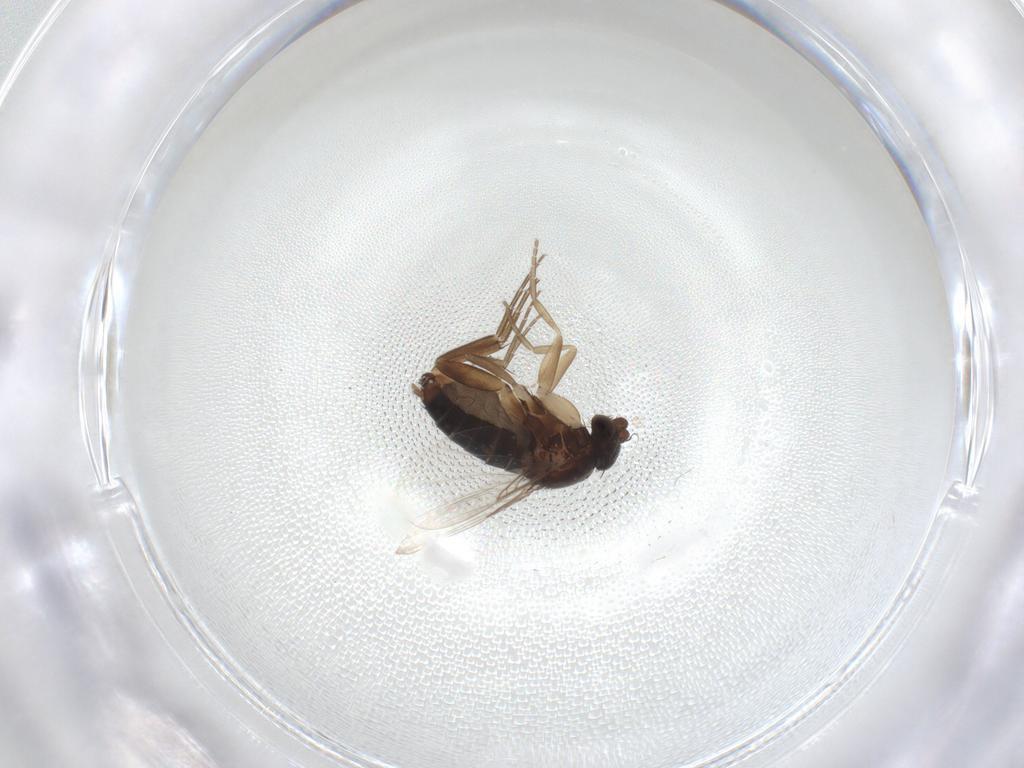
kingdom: Animalia
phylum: Arthropoda
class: Insecta
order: Diptera
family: Phoridae
